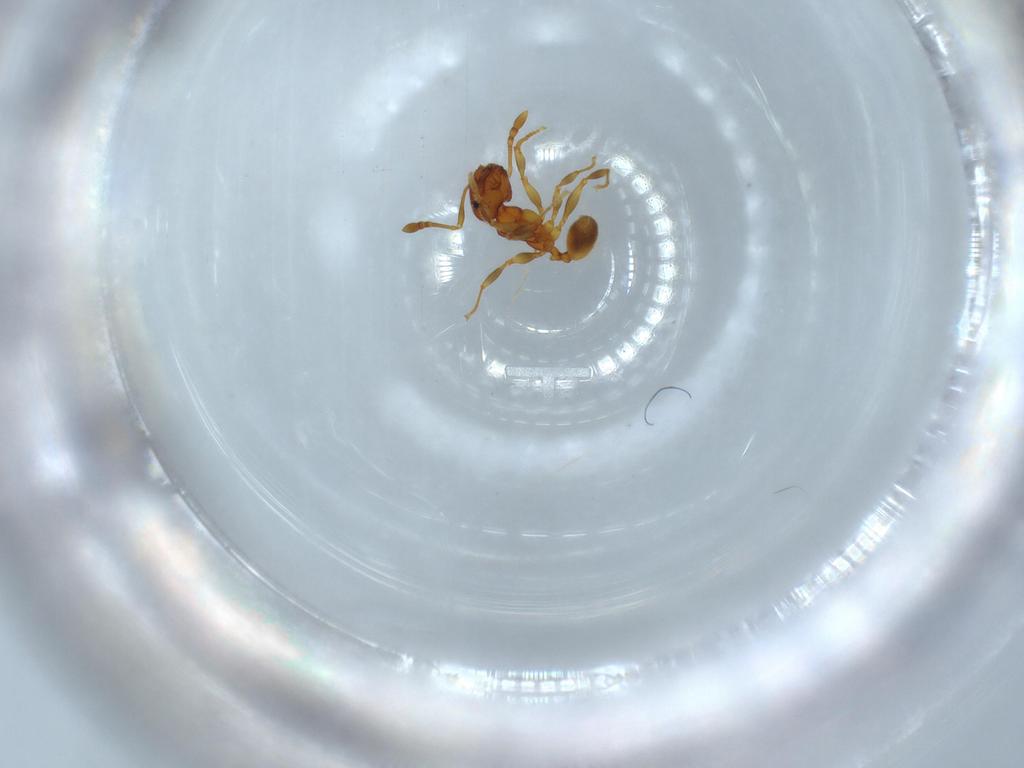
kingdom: Animalia
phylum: Arthropoda
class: Insecta
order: Hymenoptera
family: Formicidae
